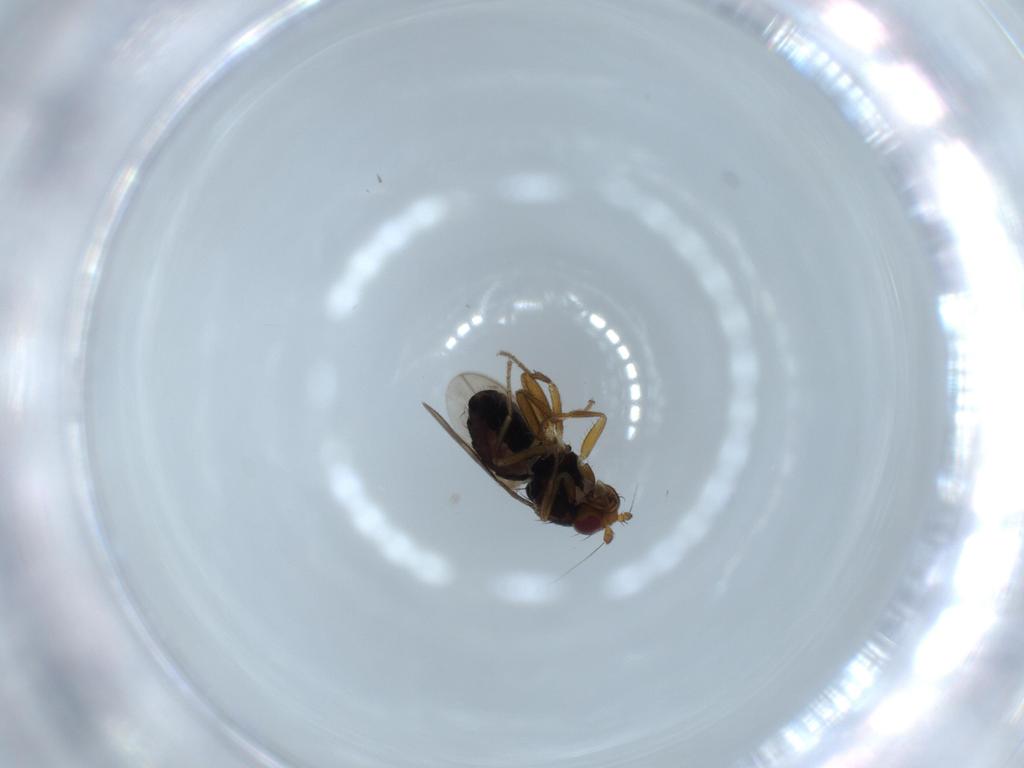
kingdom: Animalia
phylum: Arthropoda
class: Insecta
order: Diptera
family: Sphaeroceridae
